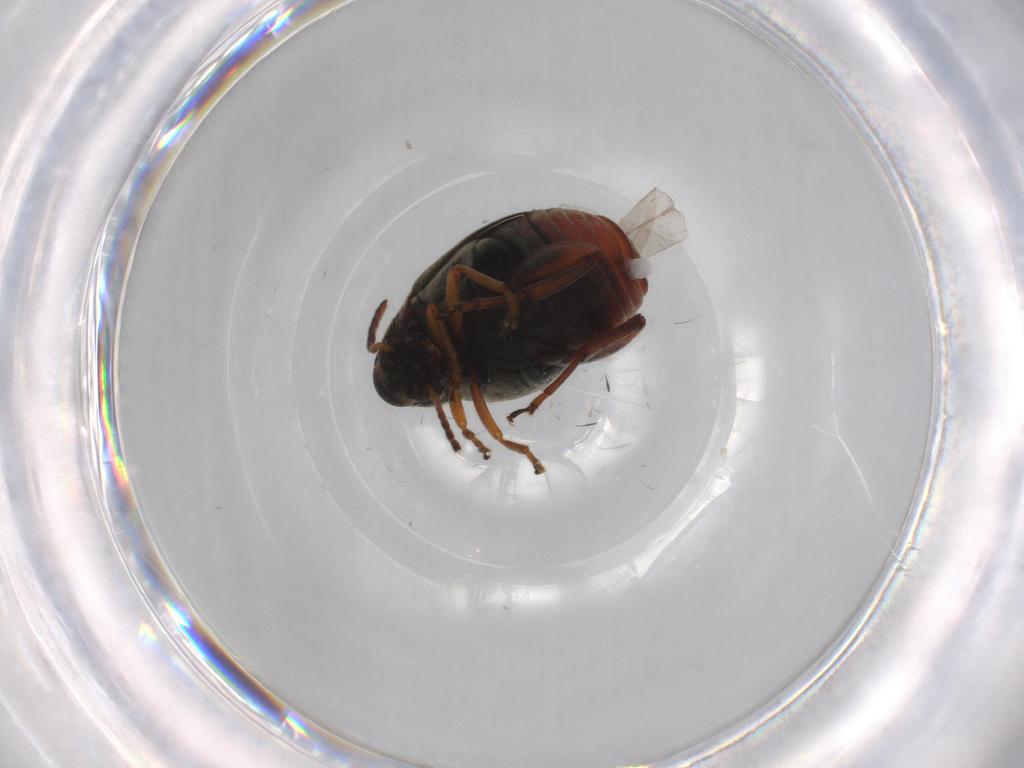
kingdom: Animalia
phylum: Arthropoda
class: Insecta
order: Coleoptera
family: Chrysomelidae
